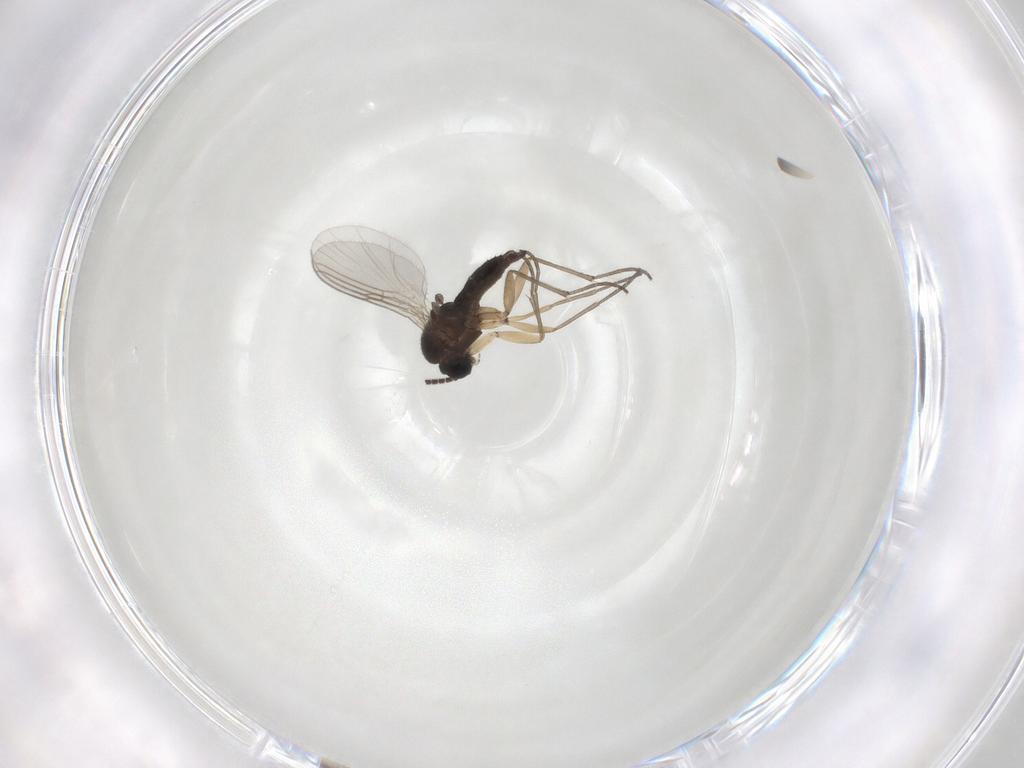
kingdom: Animalia
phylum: Arthropoda
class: Insecta
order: Diptera
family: Sciaridae
